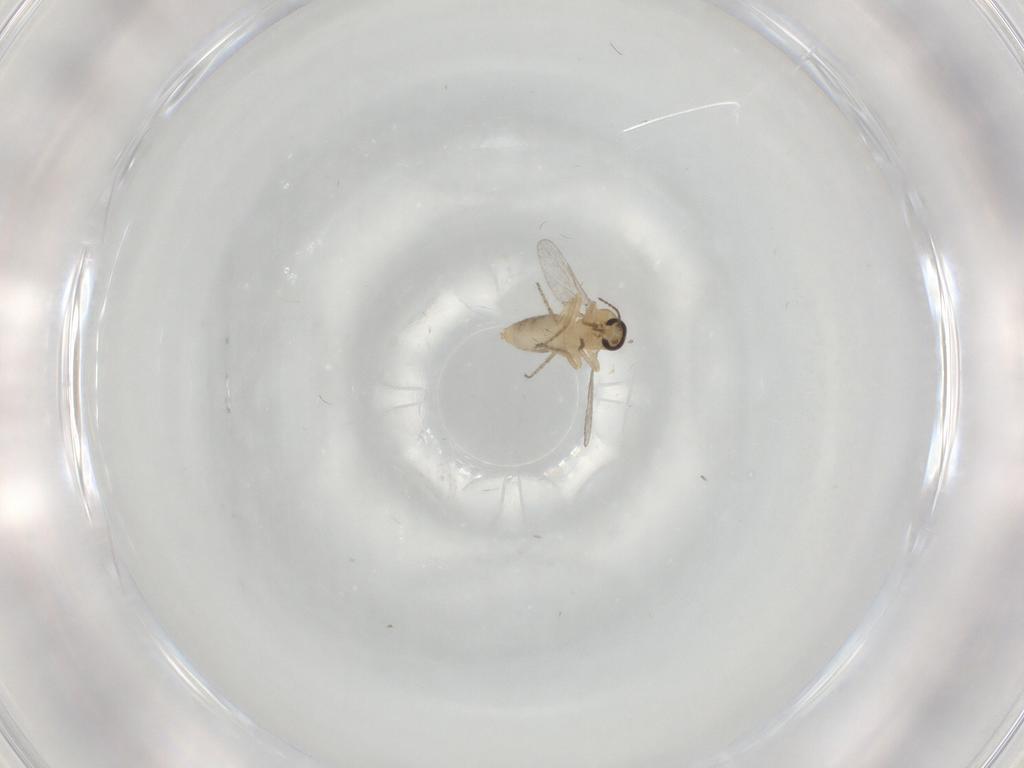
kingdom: Animalia
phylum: Arthropoda
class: Insecta
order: Diptera
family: Ceratopogonidae
